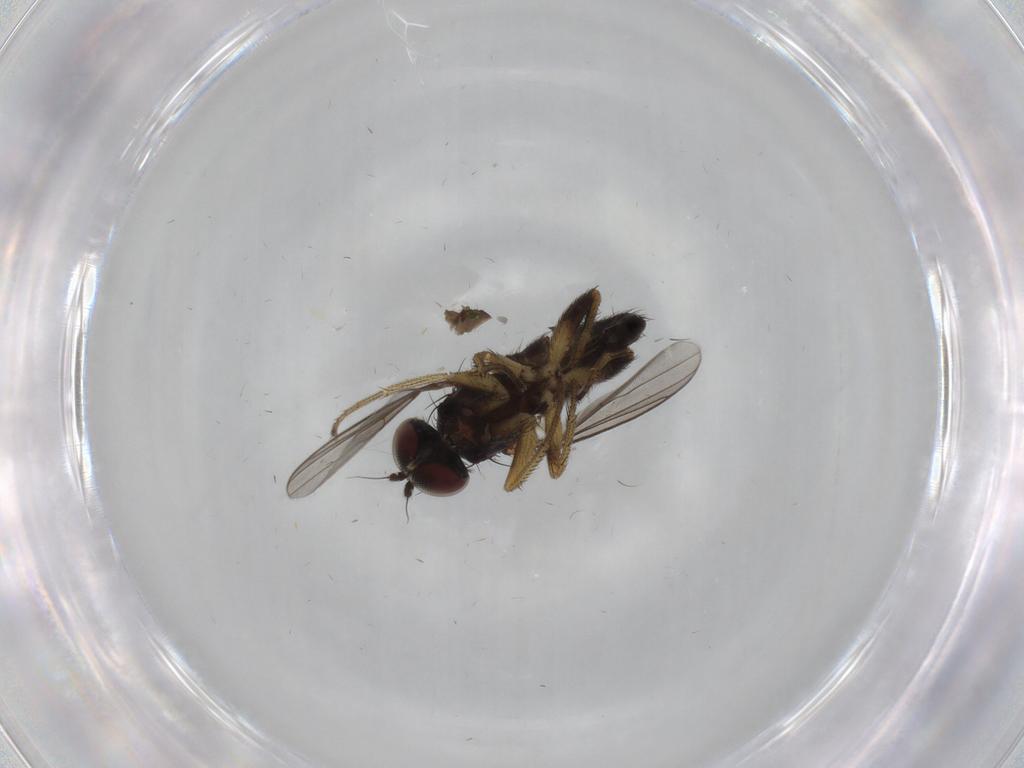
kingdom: Animalia
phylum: Arthropoda
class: Insecta
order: Diptera
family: Dolichopodidae
